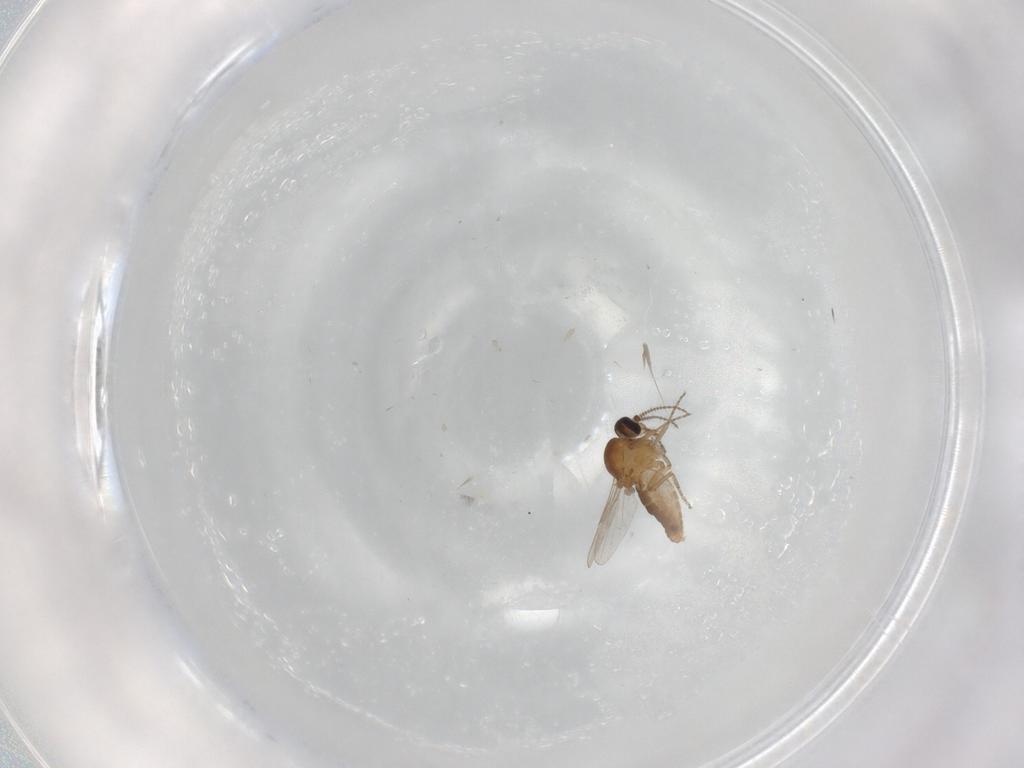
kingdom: Animalia
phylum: Arthropoda
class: Insecta
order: Diptera
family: Ceratopogonidae
